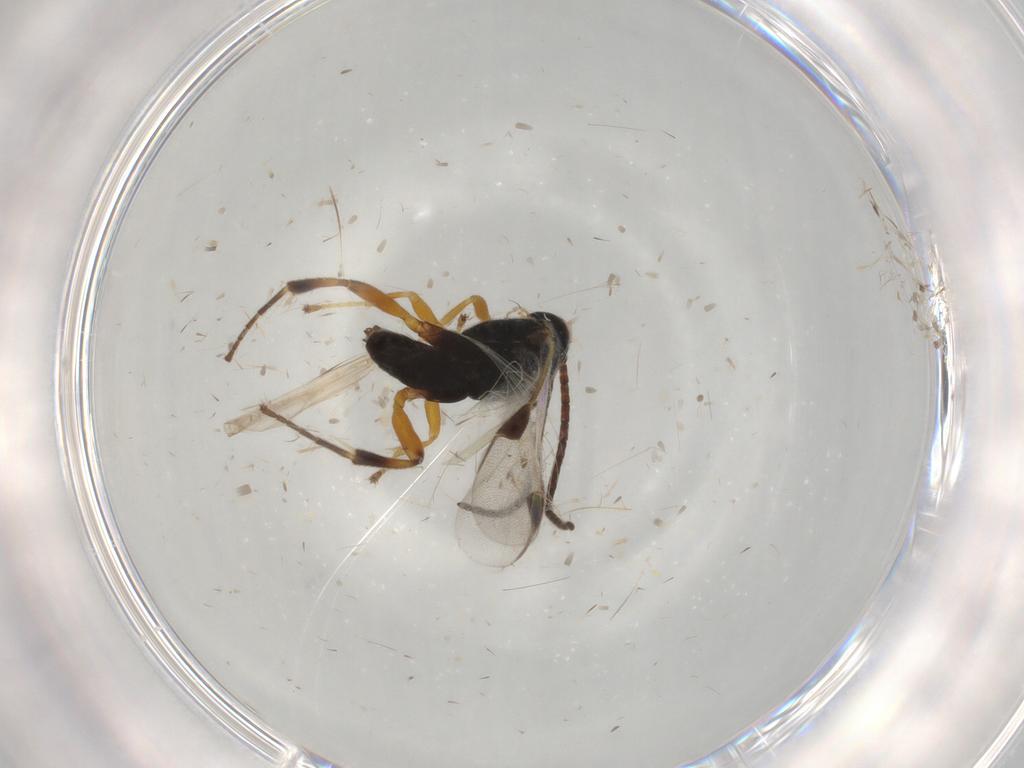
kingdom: Animalia
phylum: Arthropoda
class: Insecta
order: Hymenoptera
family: Braconidae
